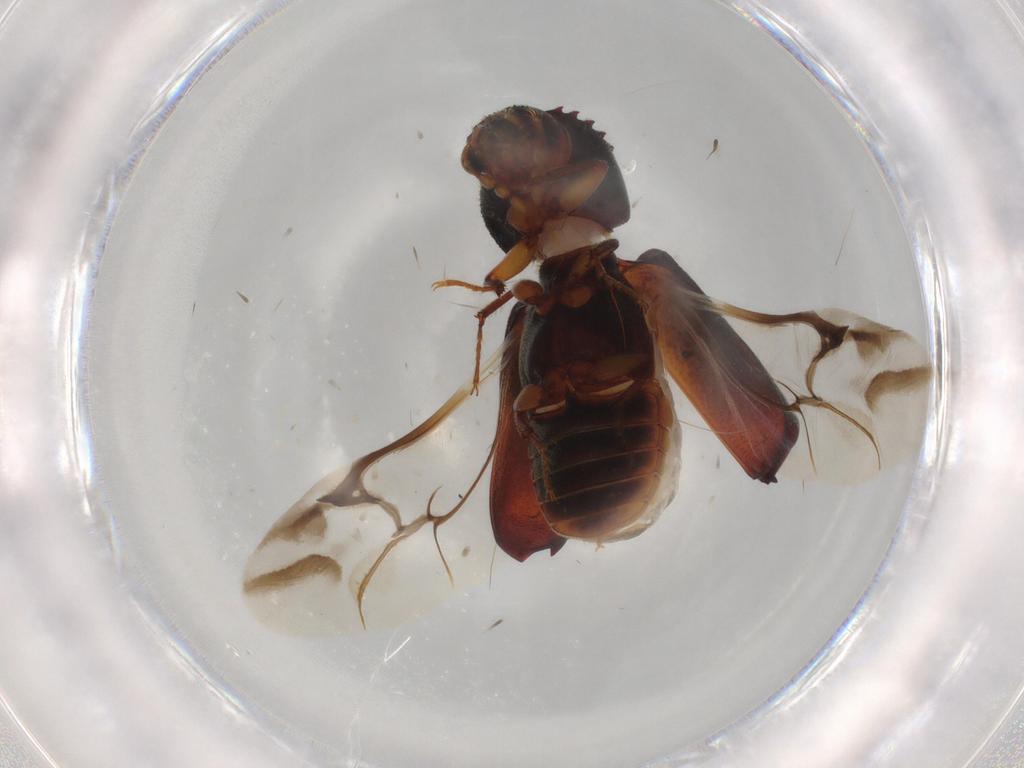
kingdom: Animalia
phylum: Arthropoda
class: Insecta
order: Coleoptera
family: Bostrichidae
